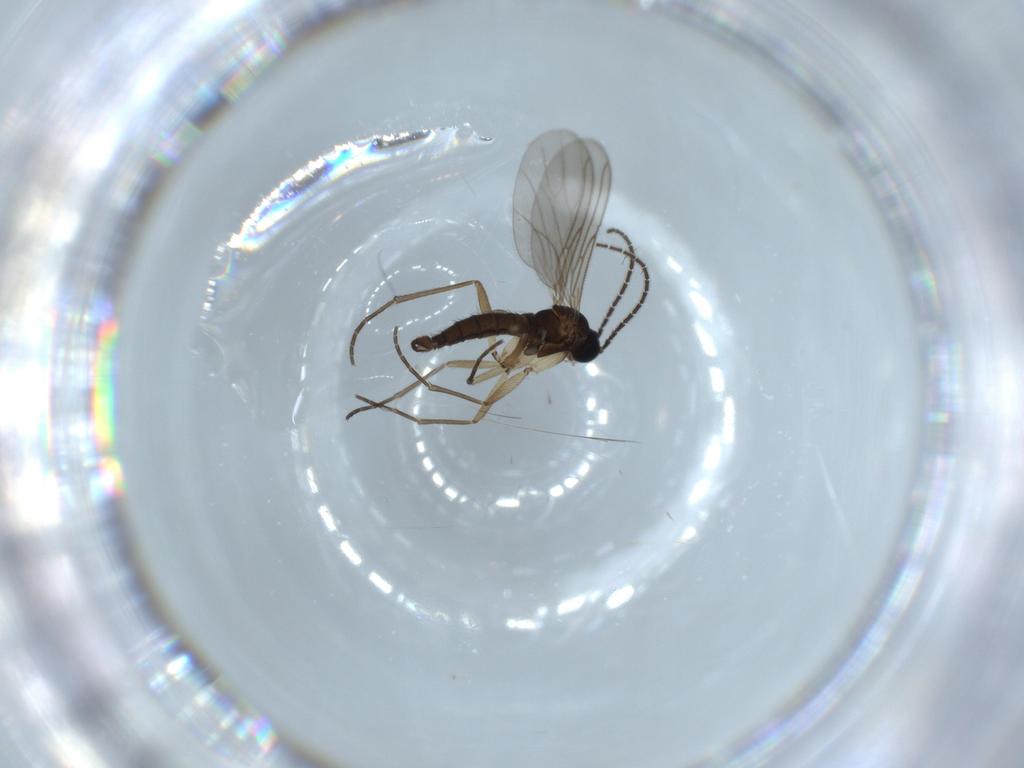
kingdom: Animalia
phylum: Arthropoda
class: Insecta
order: Diptera
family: Sciaridae
